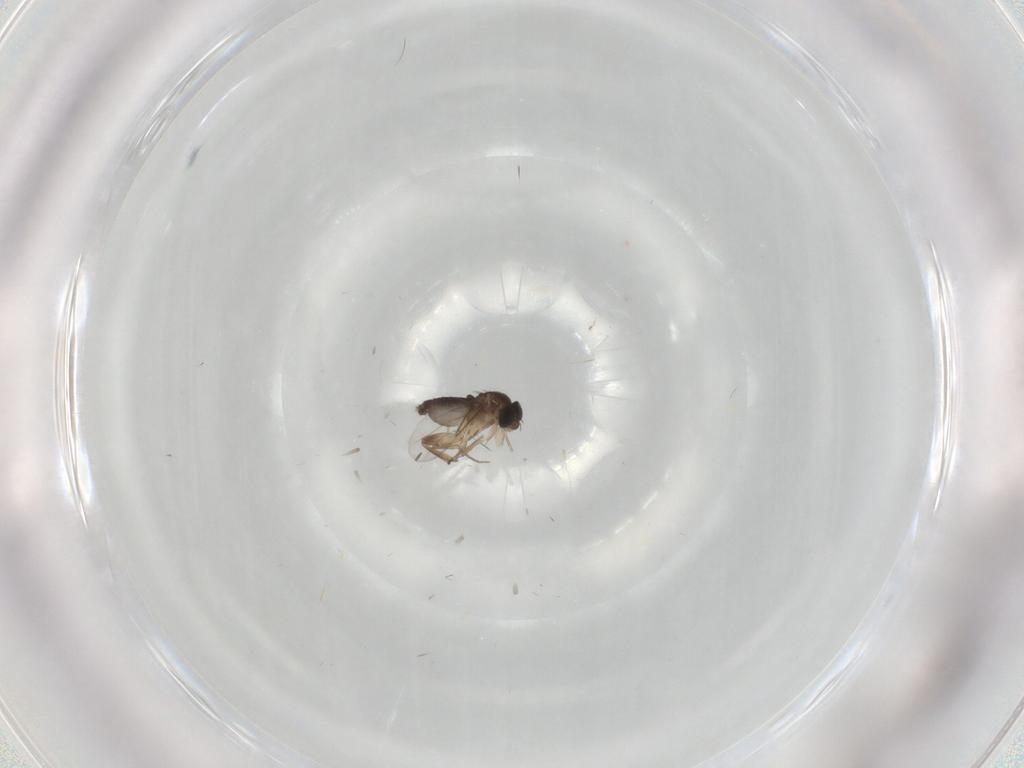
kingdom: Animalia
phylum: Arthropoda
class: Insecta
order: Diptera
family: Phoridae
